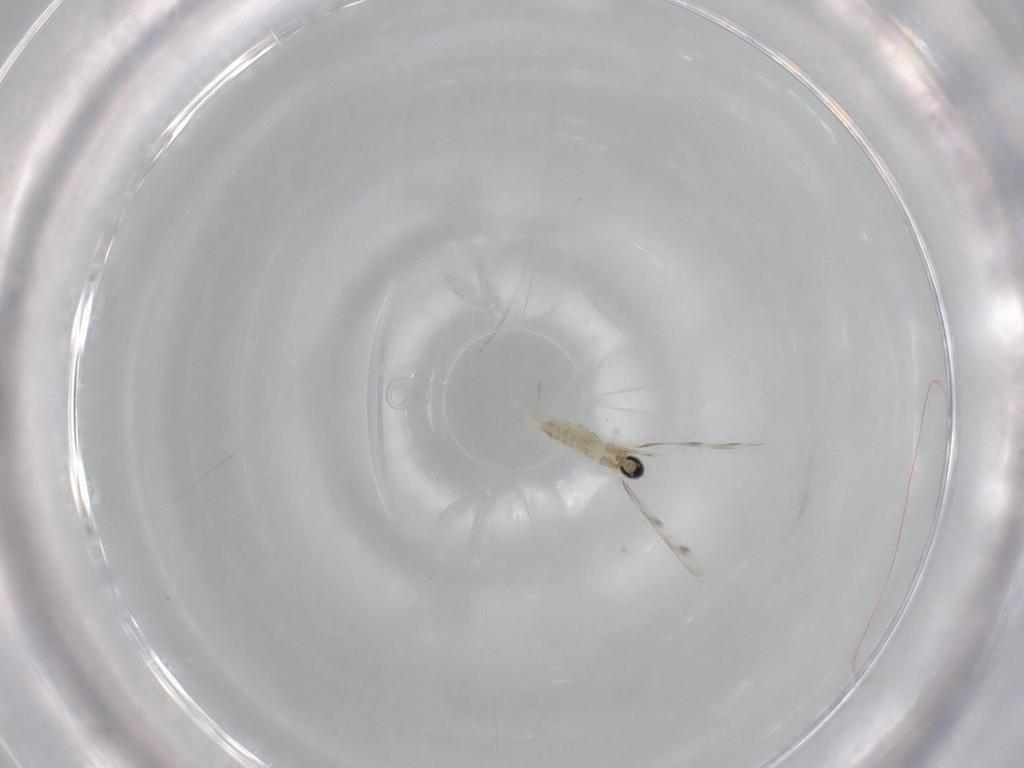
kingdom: Animalia
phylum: Arthropoda
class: Insecta
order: Diptera
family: Cecidomyiidae
